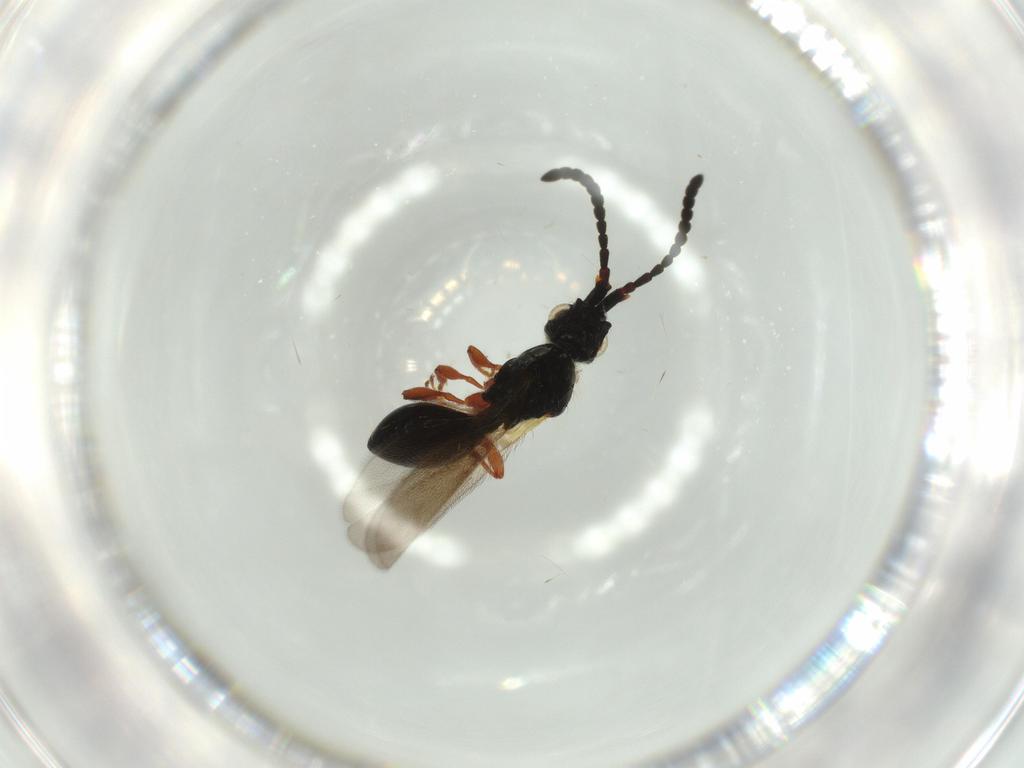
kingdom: Animalia
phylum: Arthropoda
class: Insecta
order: Hymenoptera
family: Diapriidae
